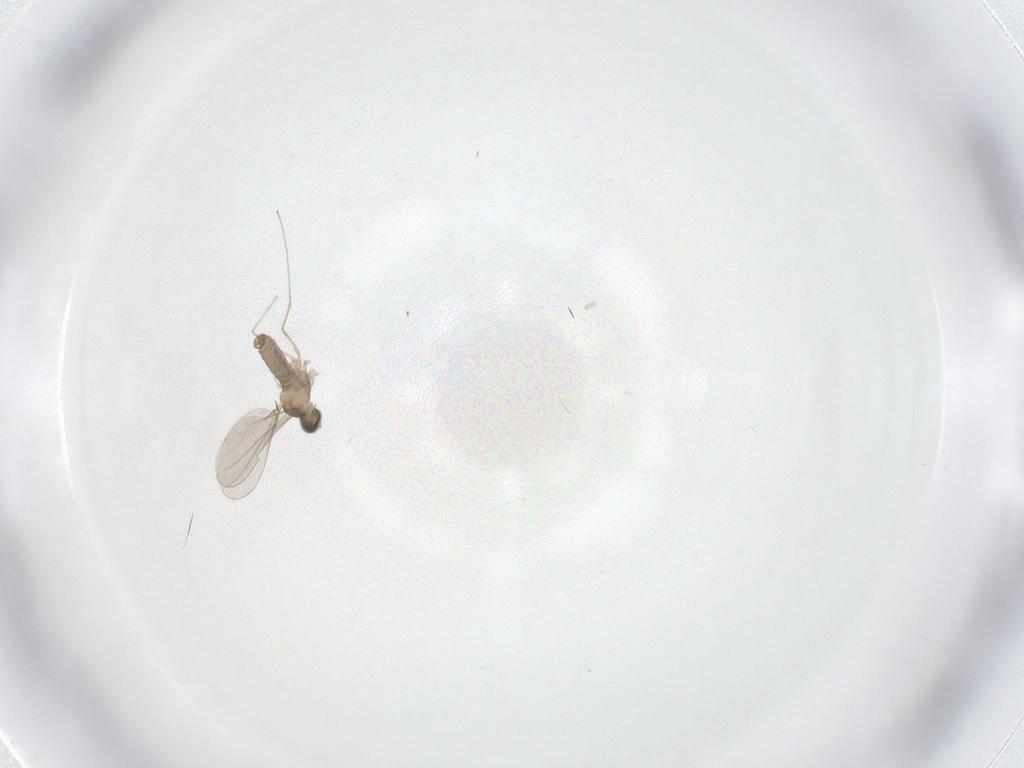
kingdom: Animalia
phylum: Arthropoda
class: Insecta
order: Diptera
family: Cecidomyiidae
